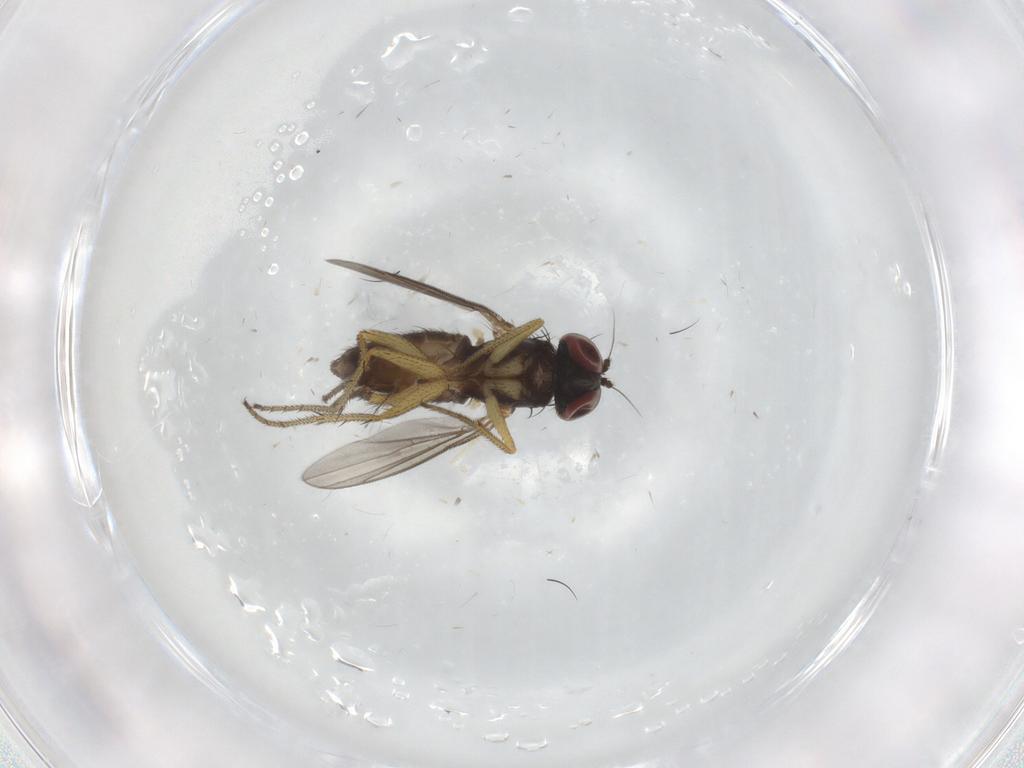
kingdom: Animalia
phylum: Arthropoda
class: Insecta
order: Diptera
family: Dolichopodidae
